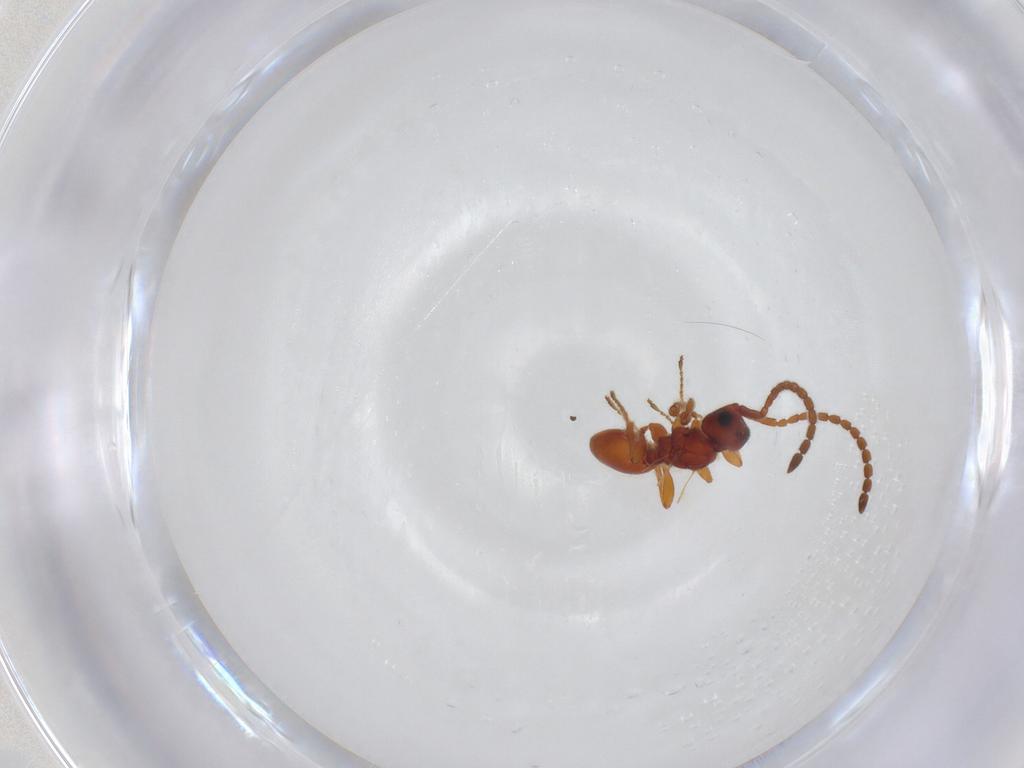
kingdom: Animalia
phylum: Arthropoda
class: Insecta
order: Hymenoptera
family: Diapriidae
